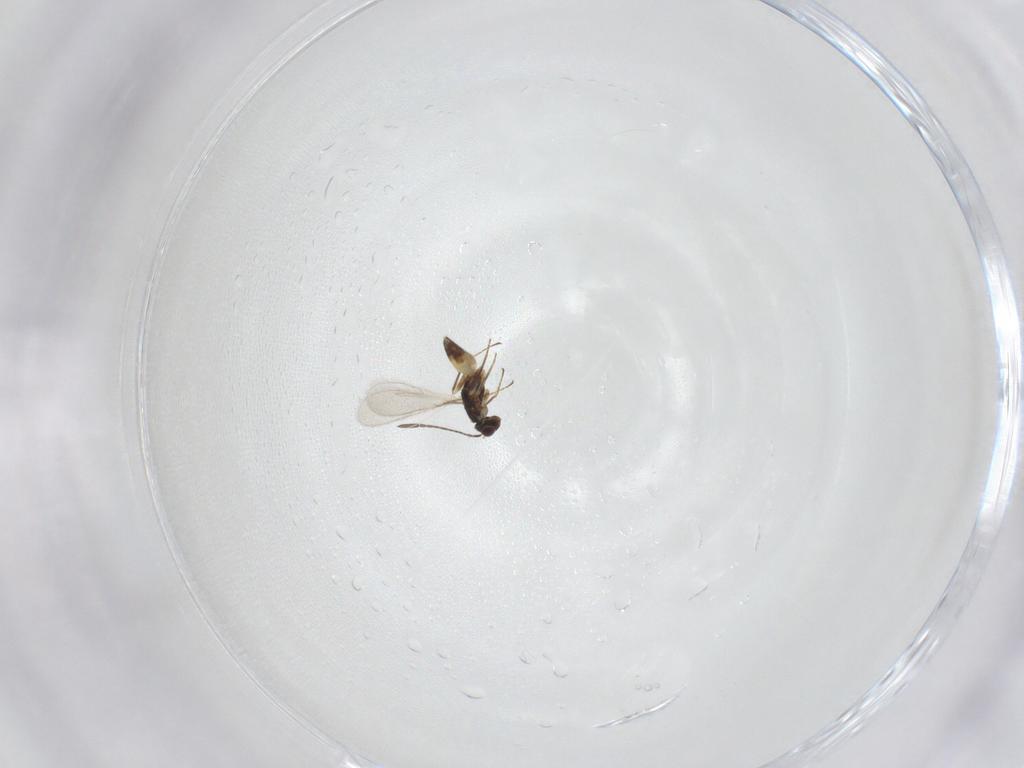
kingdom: Animalia
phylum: Arthropoda
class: Insecta
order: Hymenoptera
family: Mymaridae
